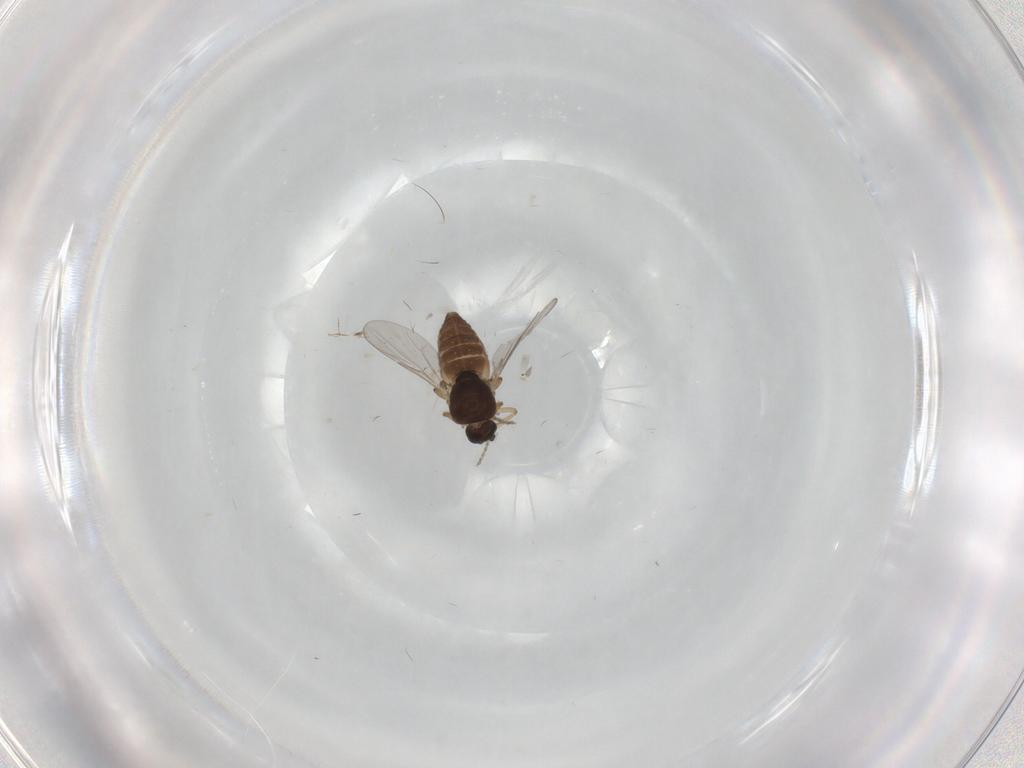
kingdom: Animalia
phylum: Arthropoda
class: Insecta
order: Diptera
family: Ceratopogonidae
